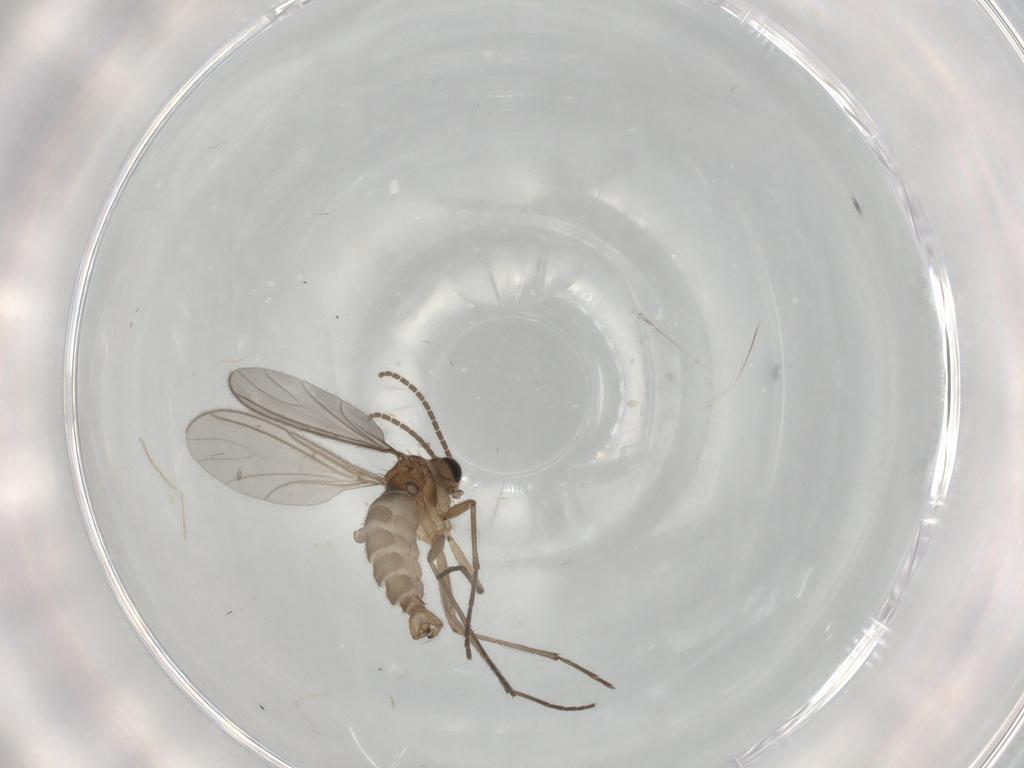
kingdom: Animalia
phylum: Arthropoda
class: Insecta
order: Diptera
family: Sciaridae
